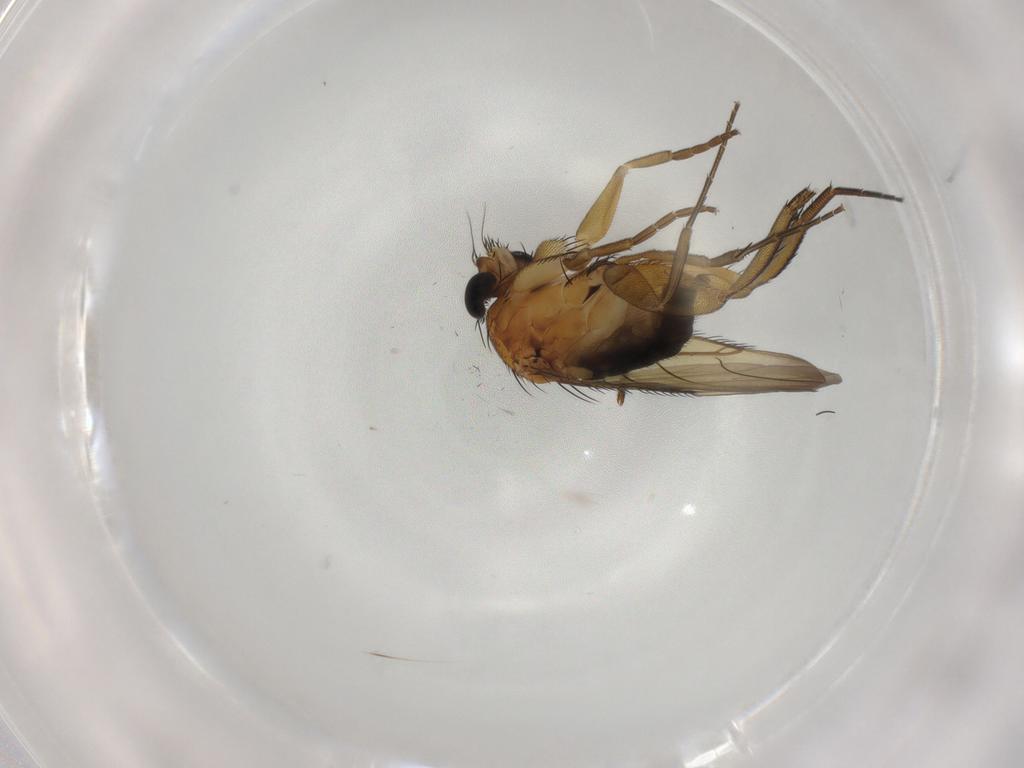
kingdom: Animalia
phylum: Arthropoda
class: Insecta
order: Diptera
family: Phoridae
